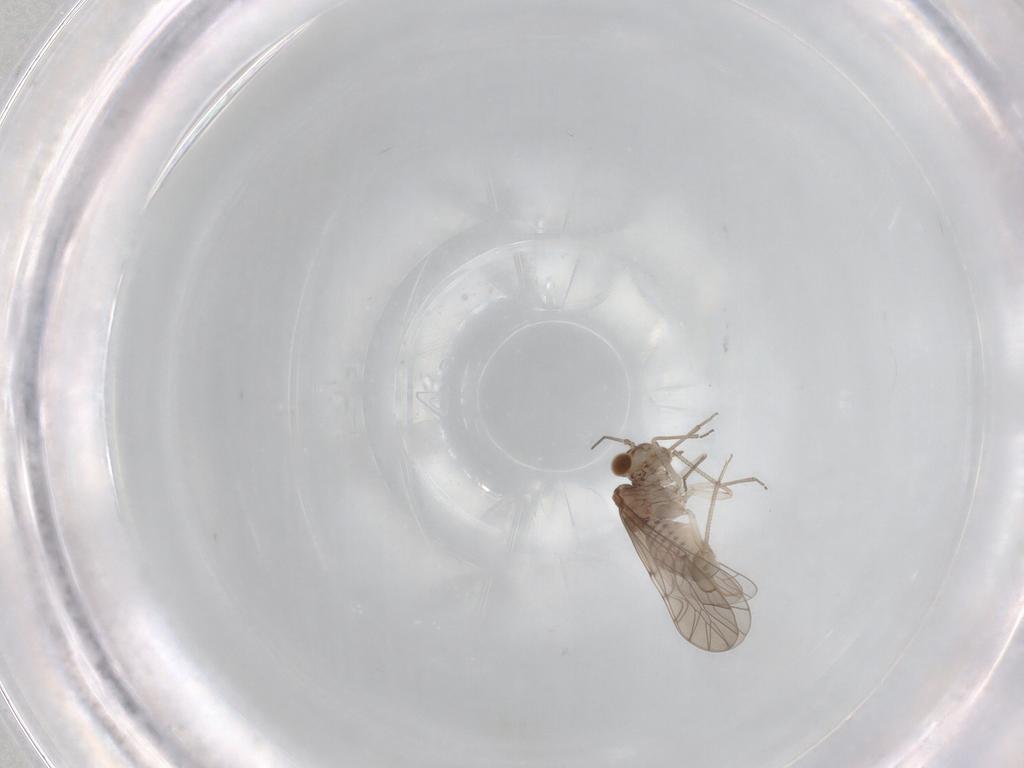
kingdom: Animalia
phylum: Arthropoda
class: Insecta
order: Psocodea
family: Lachesillidae
